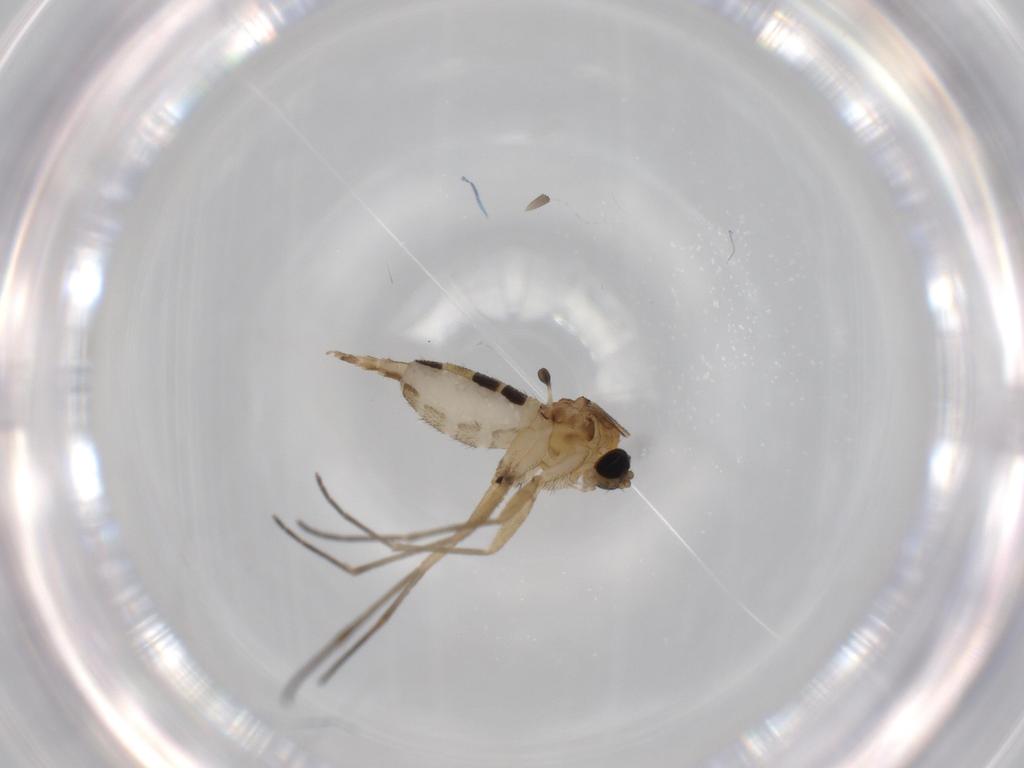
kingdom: Animalia
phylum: Arthropoda
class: Insecta
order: Diptera
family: Sciaridae
